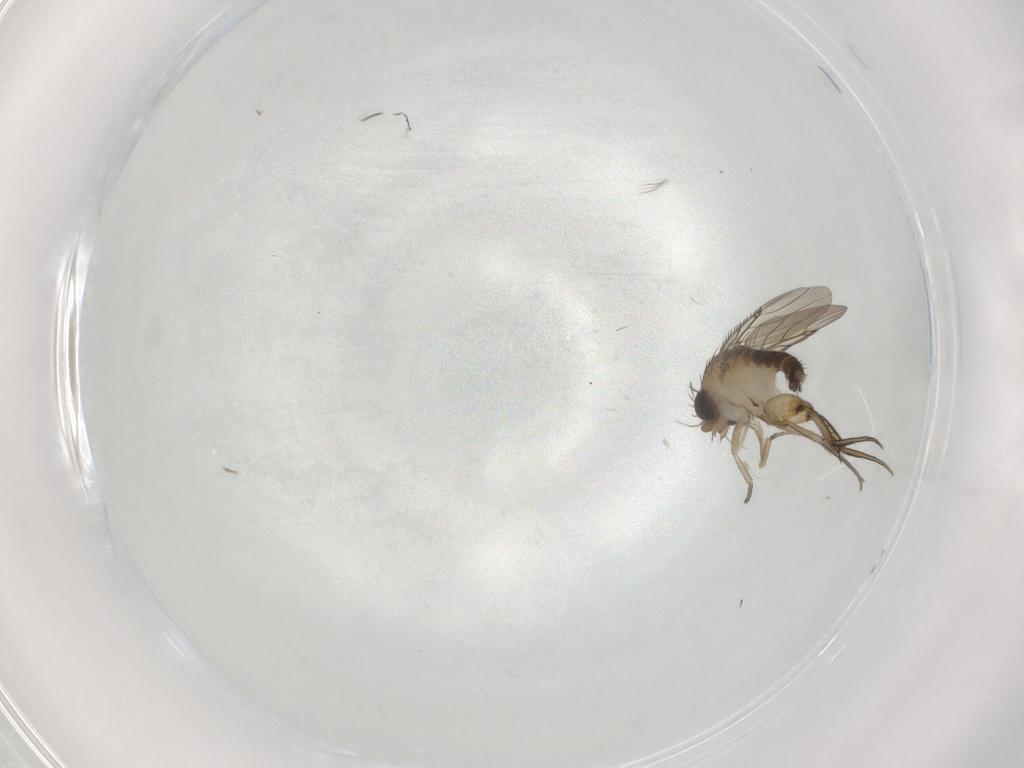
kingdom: Animalia
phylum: Arthropoda
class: Insecta
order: Diptera
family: Phoridae
